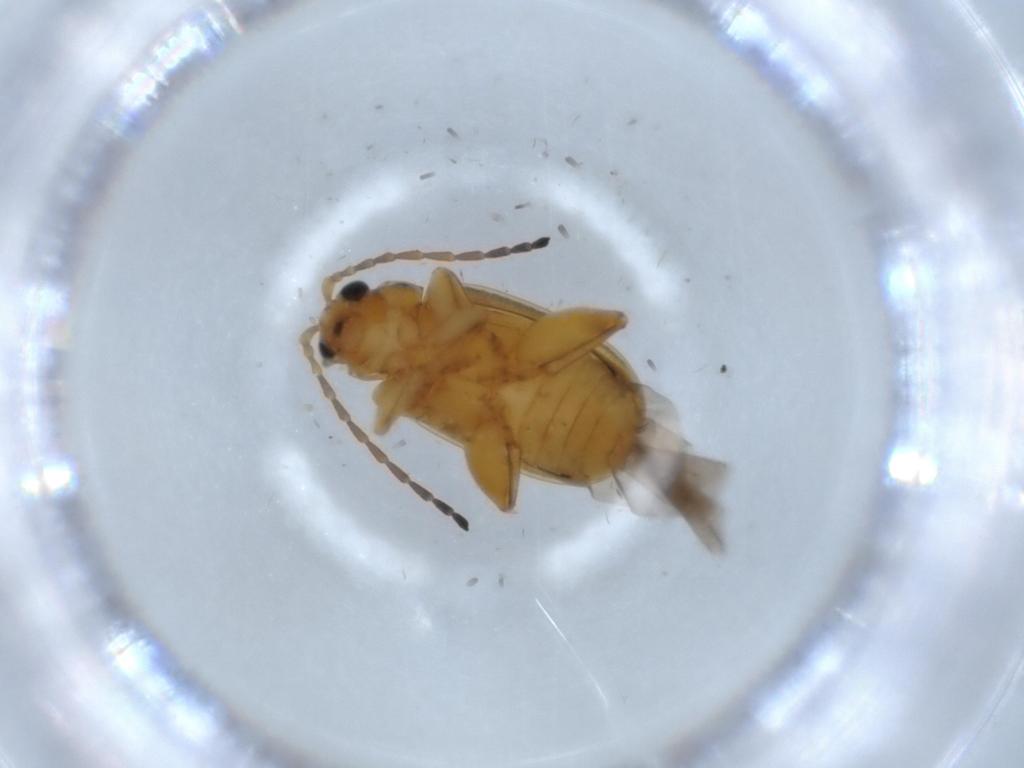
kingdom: Animalia
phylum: Arthropoda
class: Insecta
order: Coleoptera
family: Chrysomelidae
